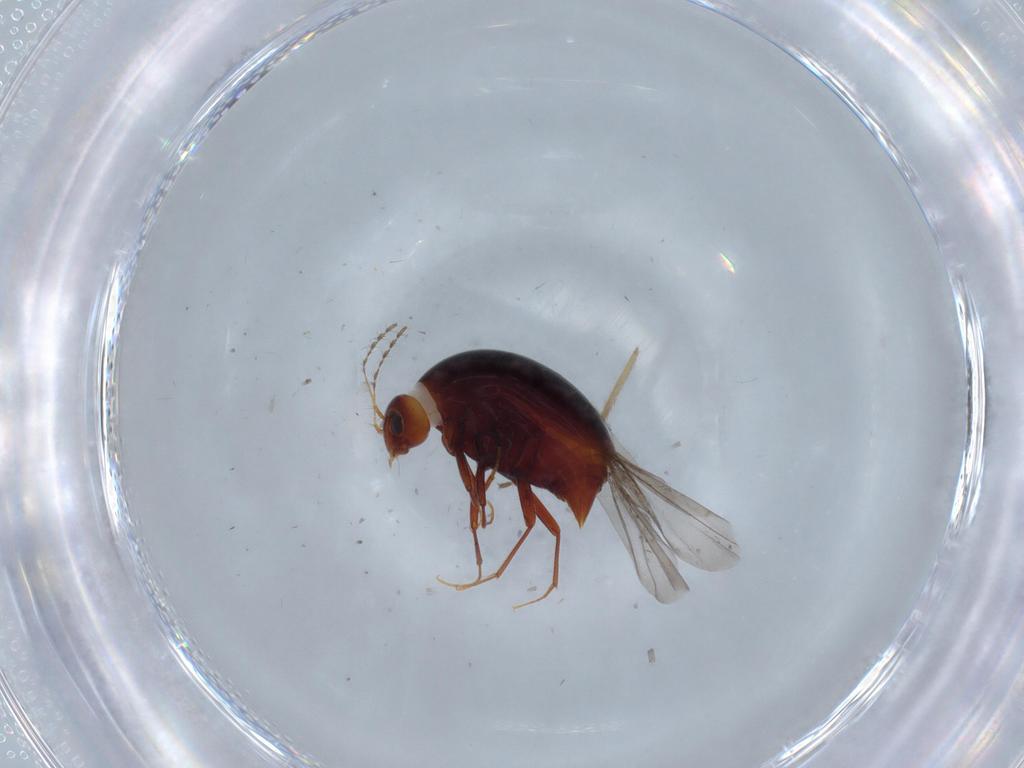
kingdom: Animalia
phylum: Arthropoda
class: Insecta
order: Coleoptera
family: Staphylinidae
